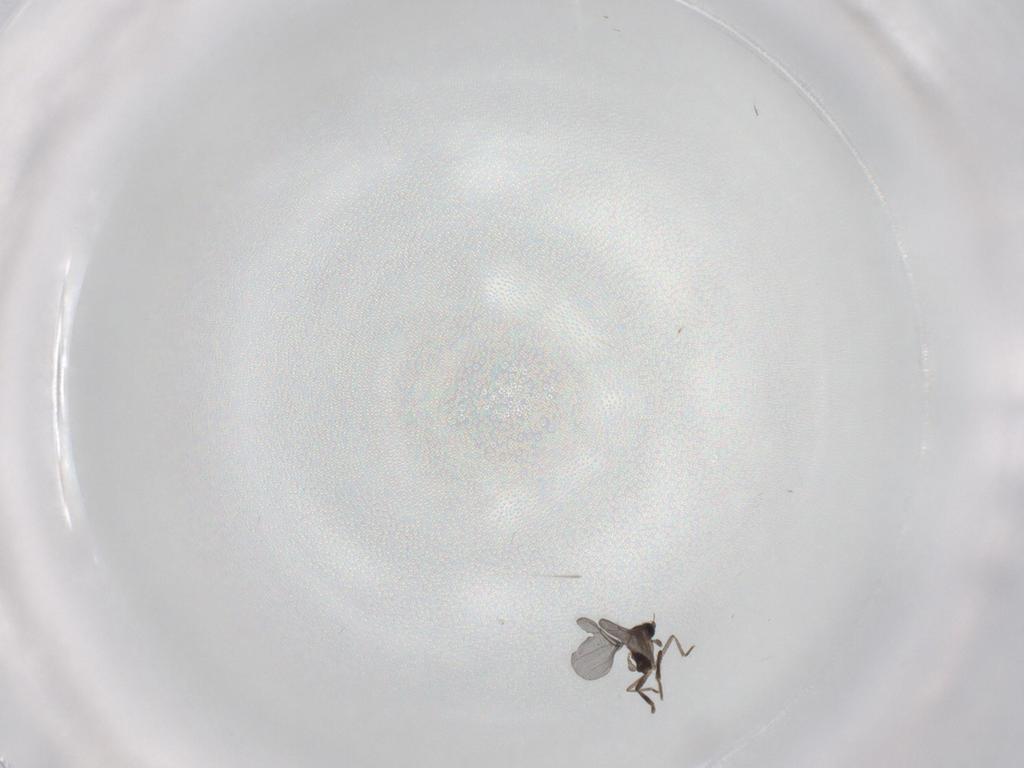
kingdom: Animalia
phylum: Arthropoda
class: Insecta
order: Diptera
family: Phoridae
